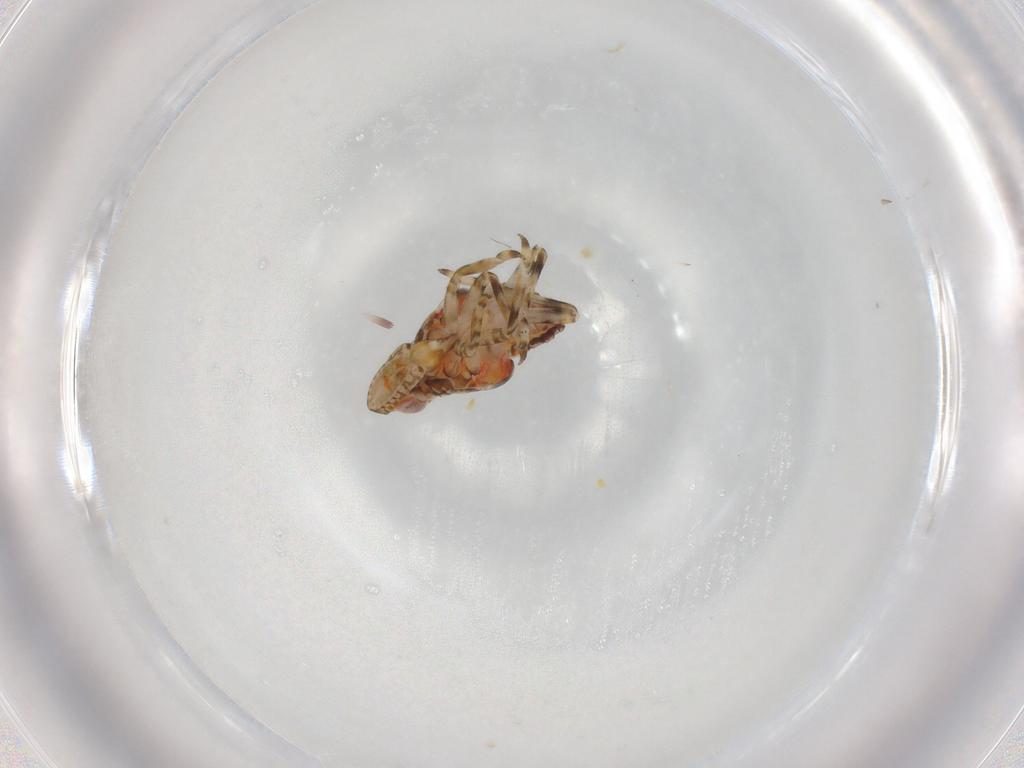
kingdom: Animalia
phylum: Arthropoda
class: Insecta
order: Hemiptera
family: Tropiduchidae
